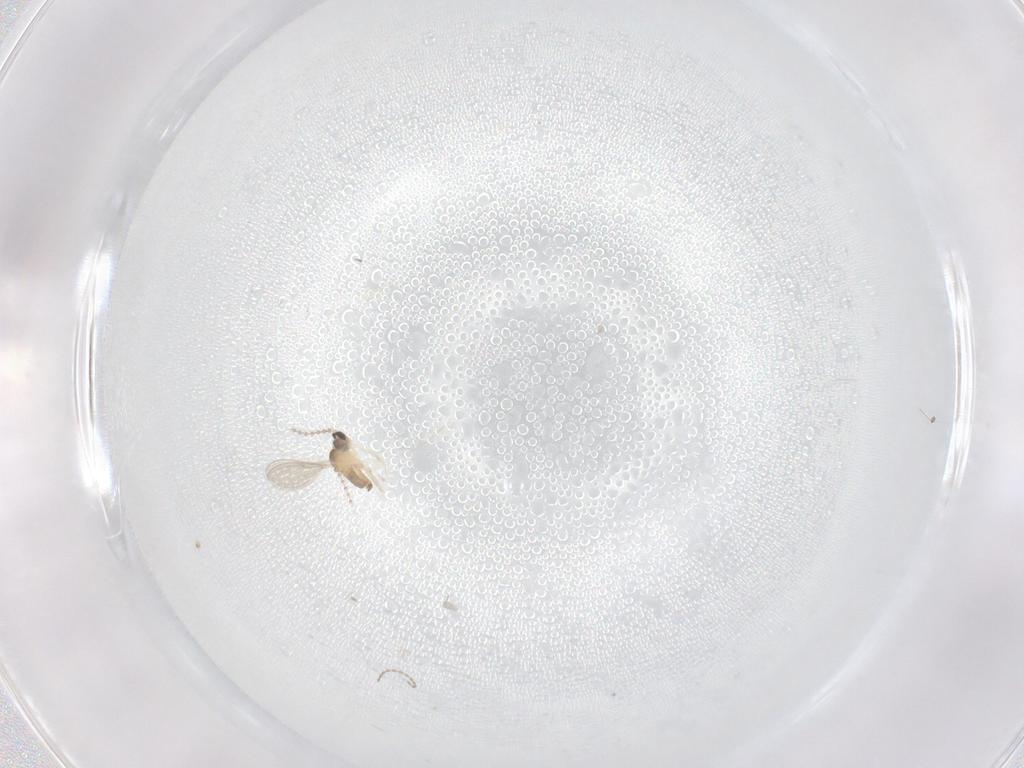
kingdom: Animalia
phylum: Arthropoda
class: Insecta
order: Diptera
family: Cecidomyiidae
